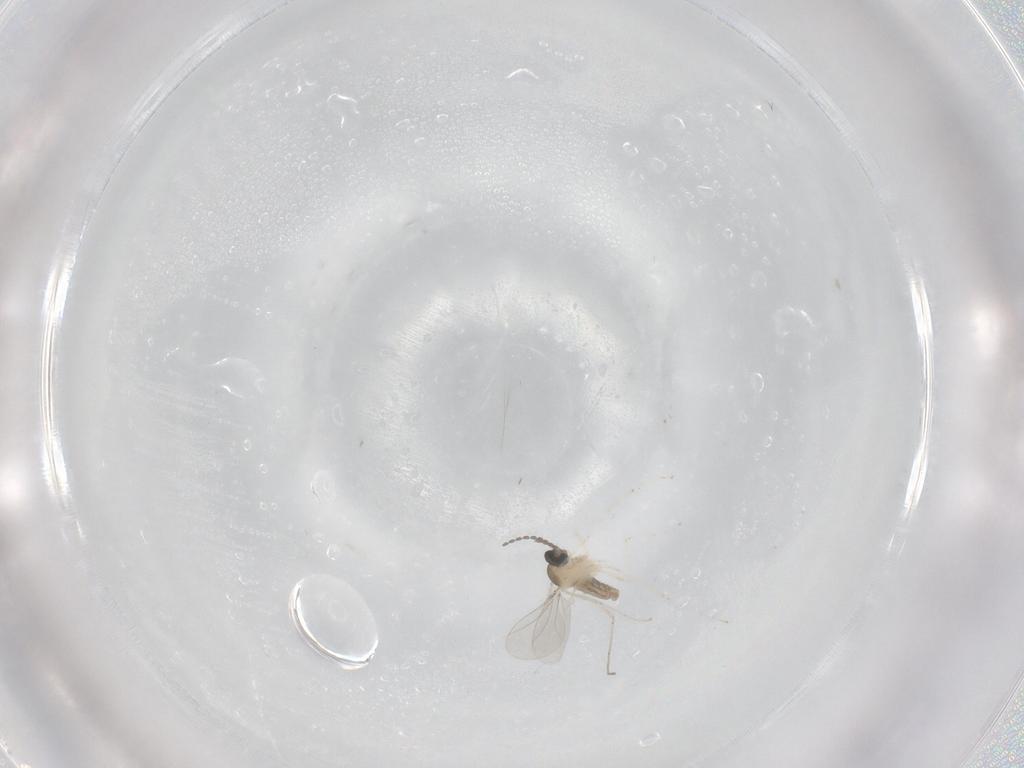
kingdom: Animalia
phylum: Arthropoda
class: Insecta
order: Diptera
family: Cecidomyiidae
